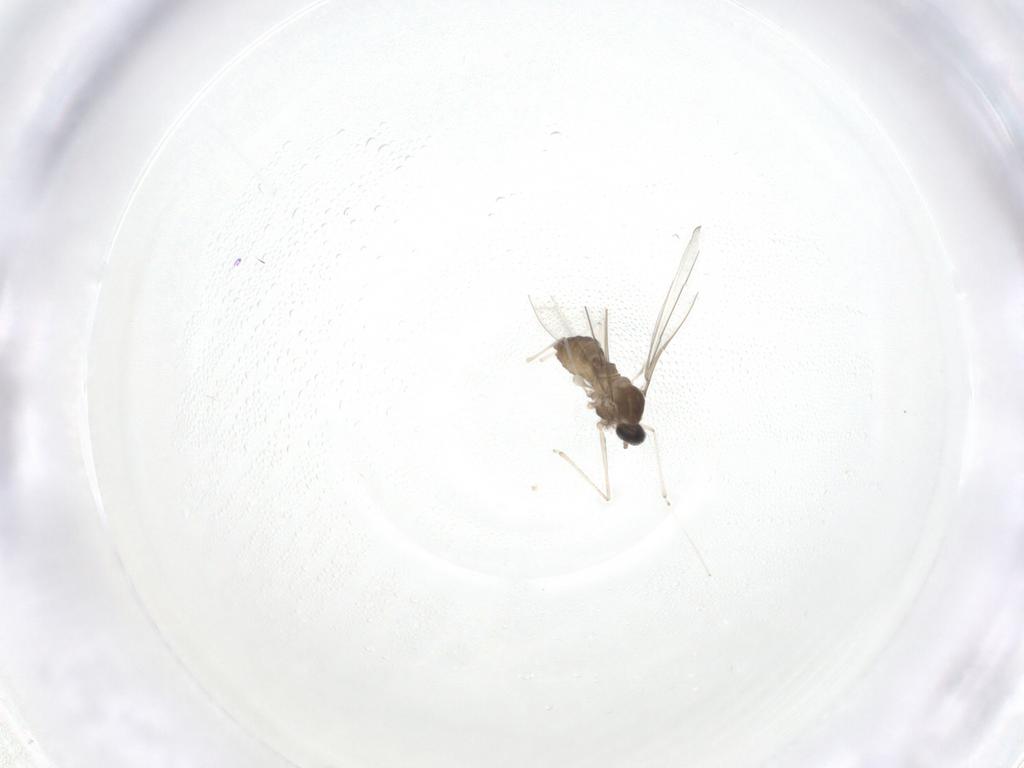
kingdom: Animalia
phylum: Arthropoda
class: Insecta
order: Diptera
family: Cecidomyiidae
